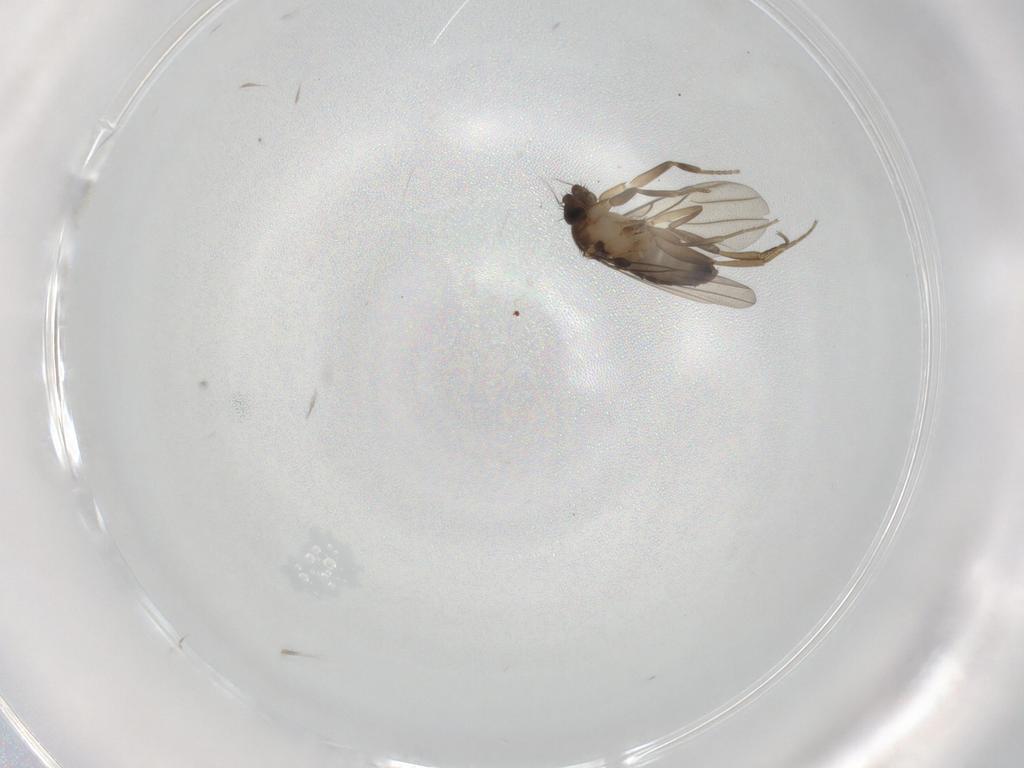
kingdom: Animalia
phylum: Arthropoda
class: Insecta
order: Diptera
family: Phoridae
